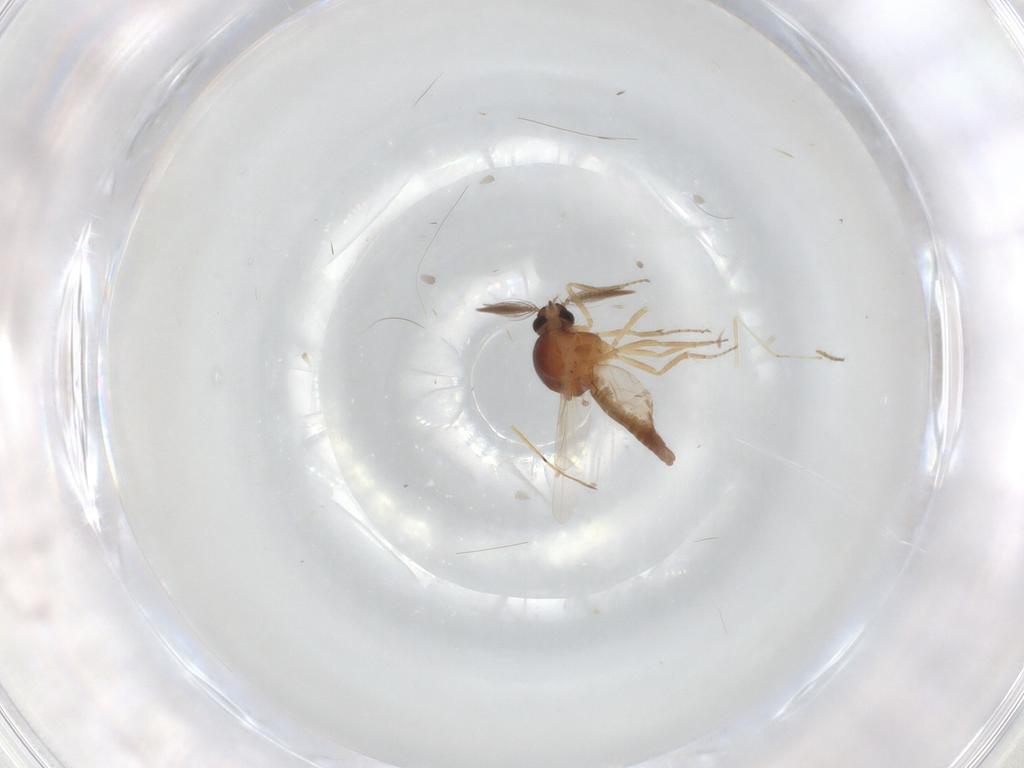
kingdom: Animalia
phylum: Arthropoda
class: Insecta
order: Diptera
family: Ceratopogonidae
